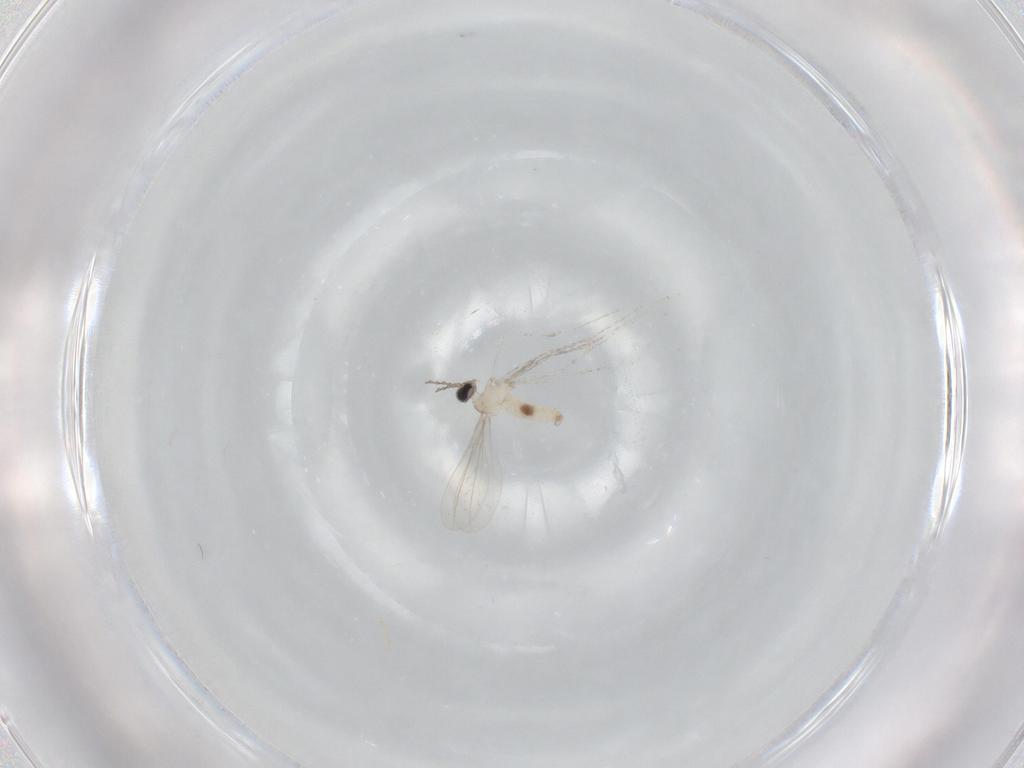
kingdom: Animalia
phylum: Arthropoda
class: Insecta
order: Diptera
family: Cecidomyiidae
